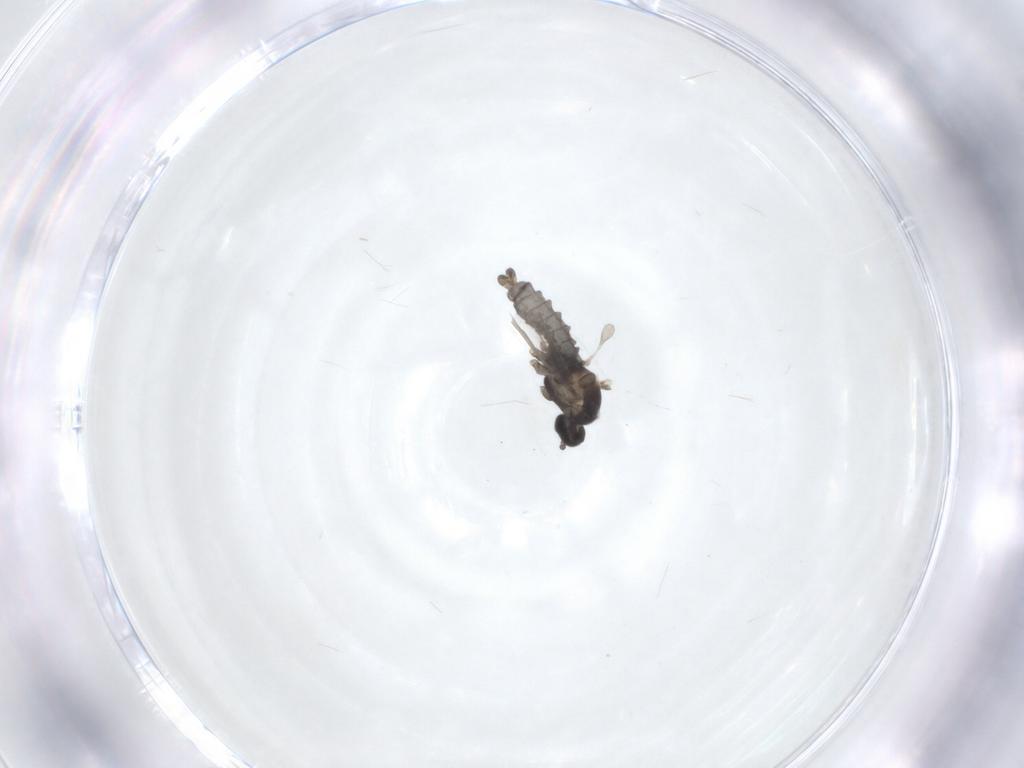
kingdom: Animalia
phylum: Arthropoda
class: Insecta
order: Diptera
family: Cecidomyiidae
